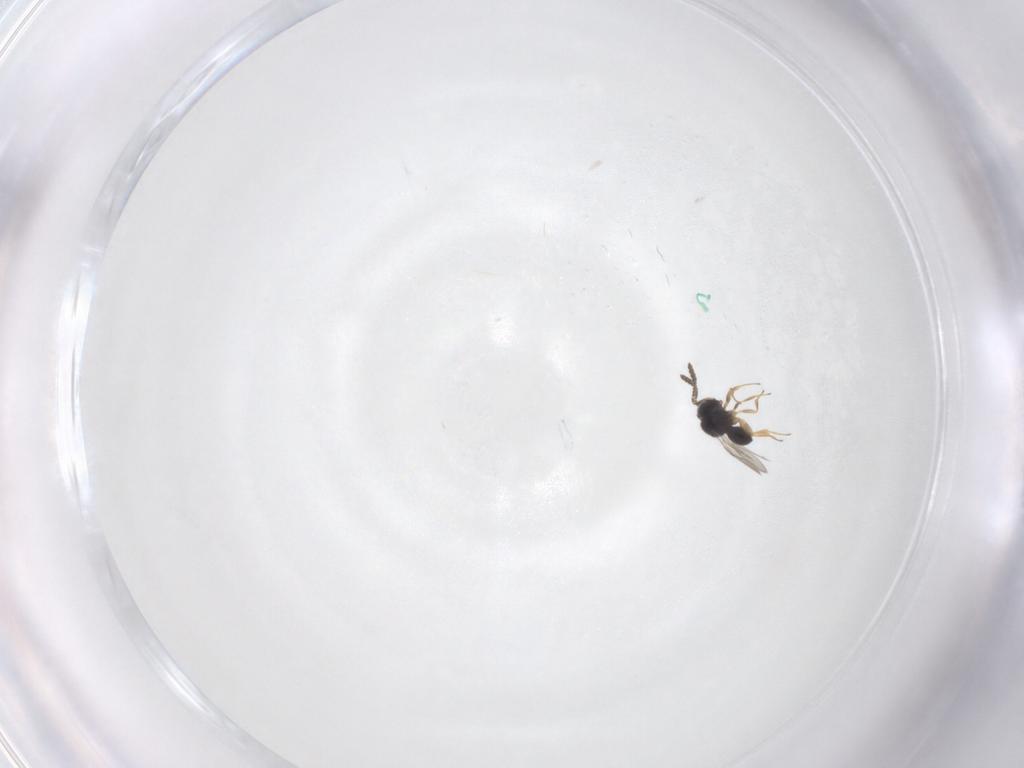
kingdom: Animalia
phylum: Arthropoda
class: Insecta
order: Hymenoptera
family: Scelionidae
